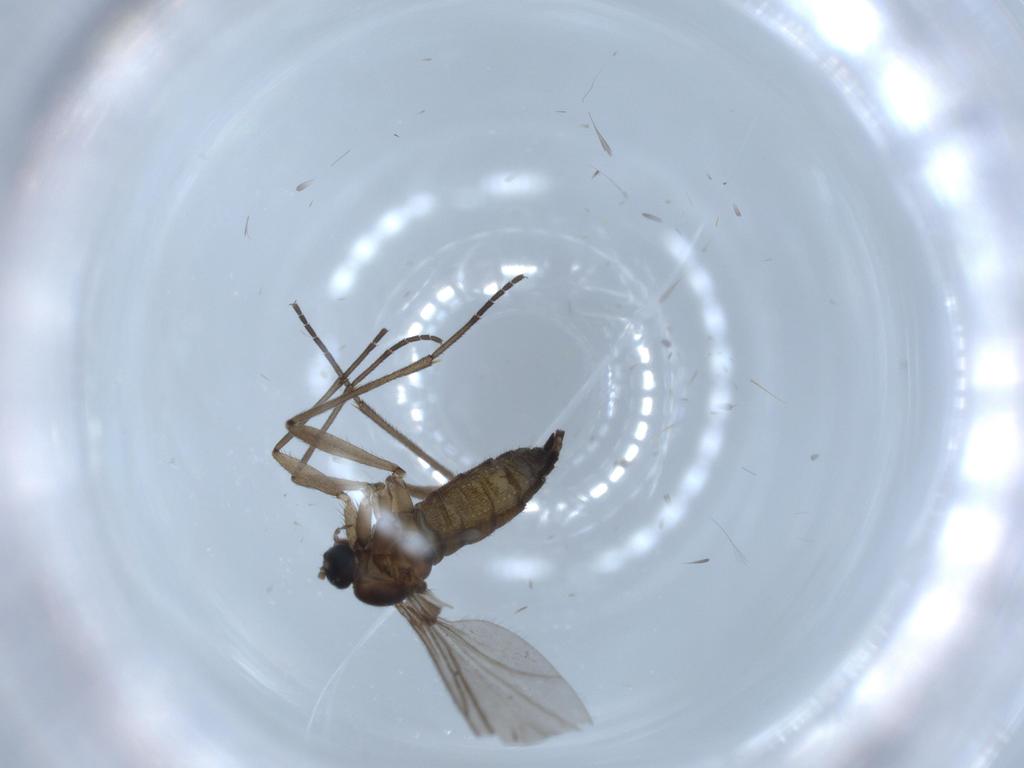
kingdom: Animalia
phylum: Arthropoda
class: Insecta
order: Diptera
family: Sciaridae
